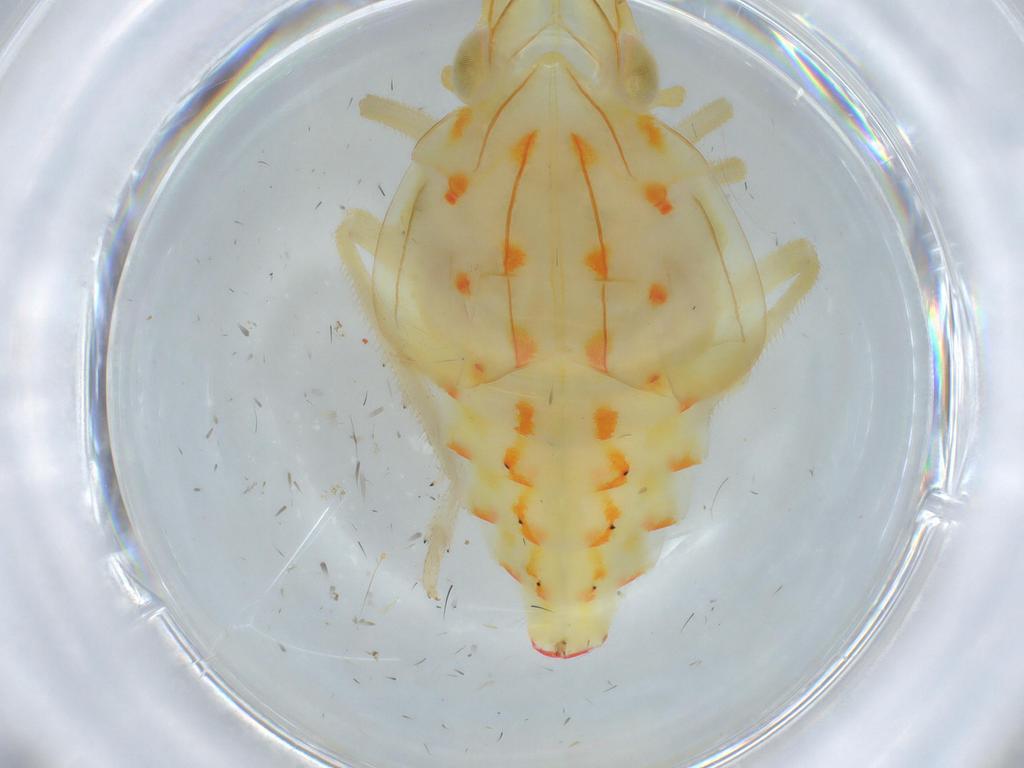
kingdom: Animalia
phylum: Arthropoda
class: Insecta
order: Hemiptera
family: Tropiduchidae
